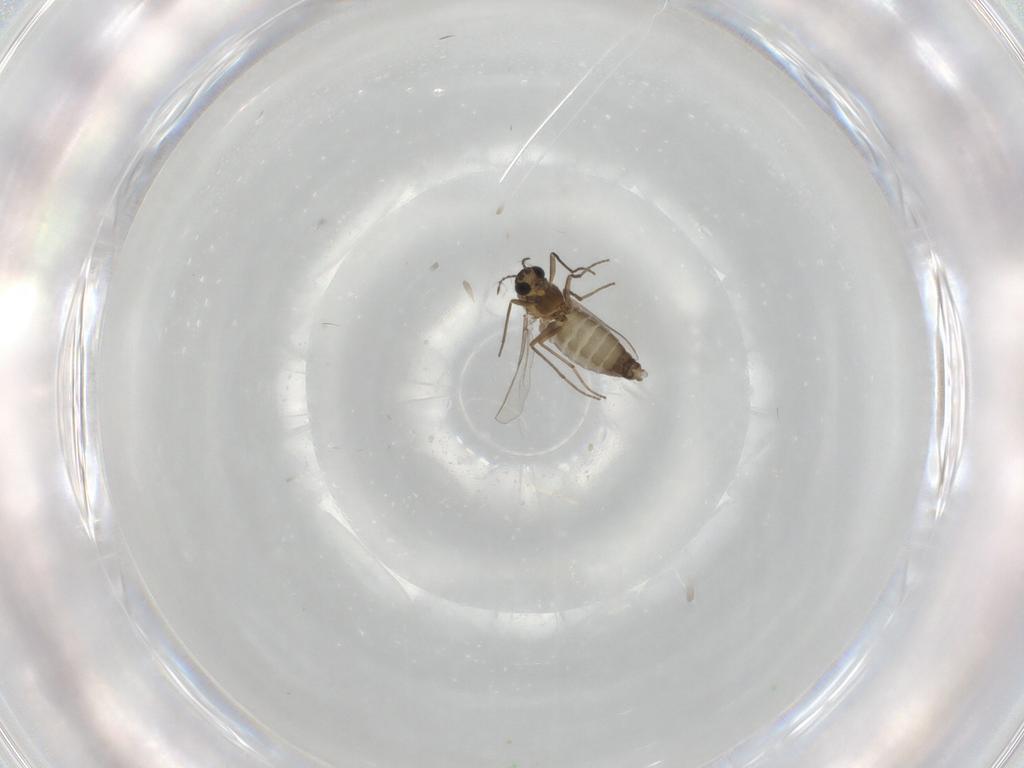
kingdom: Animalia
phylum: Arthropoda
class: Insecta
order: Diptera
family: Chironomidae
